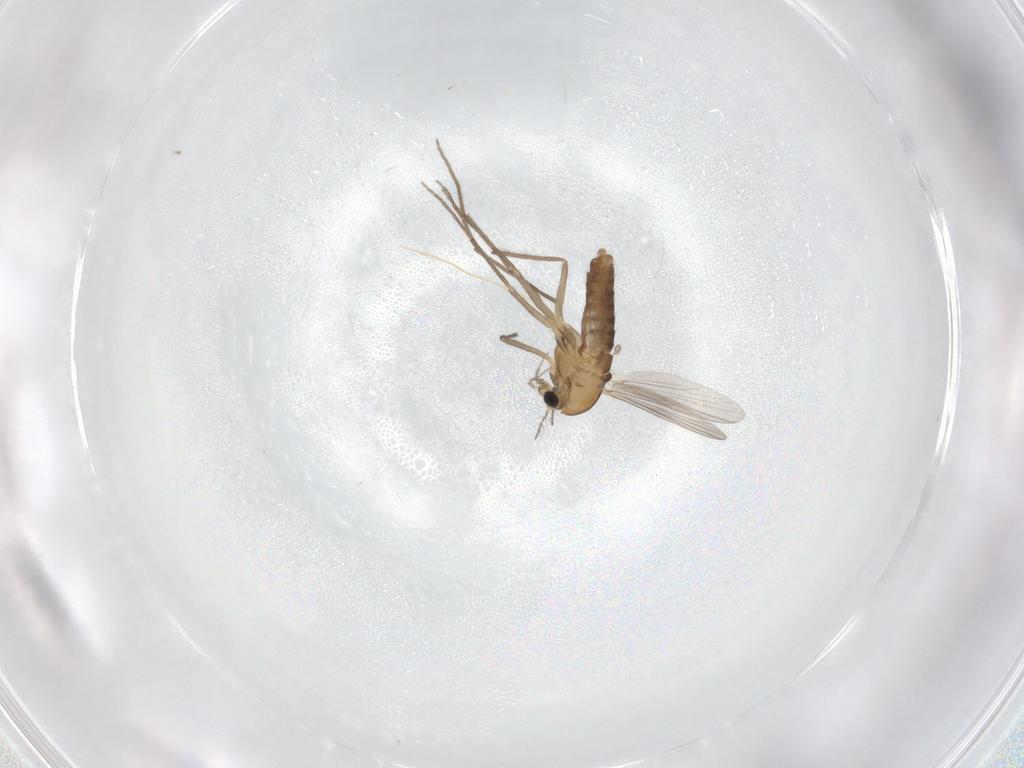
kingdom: Animalia
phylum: Arthropoda
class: Insecta
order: Diptera
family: Chironomidae
